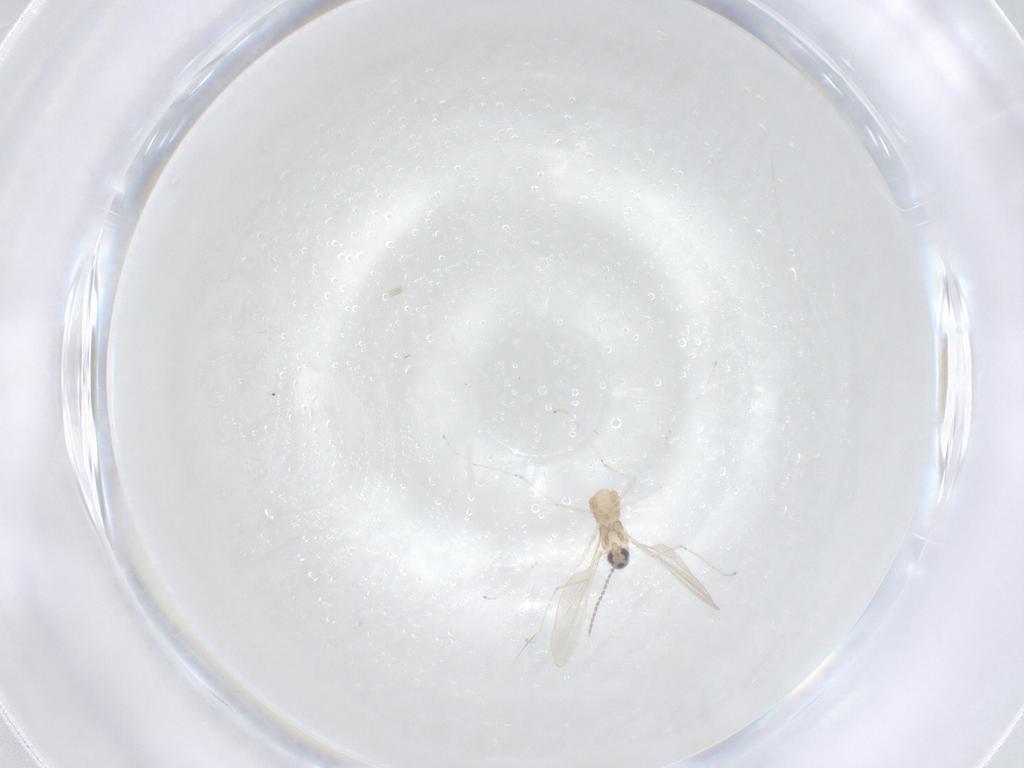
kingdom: Animalia
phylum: Arthropoda
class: Insecta
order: Diptera
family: Cecidomyiidae
